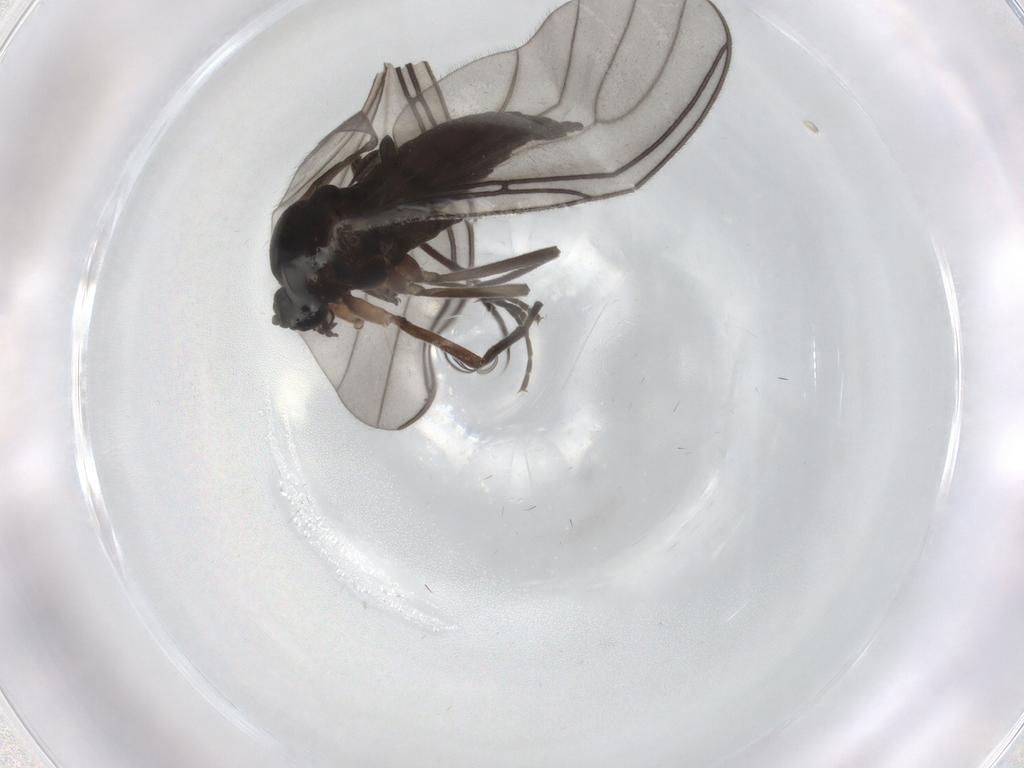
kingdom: Animalia
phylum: Arthropoda
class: Insecta
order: Diptera
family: Sciaridae
